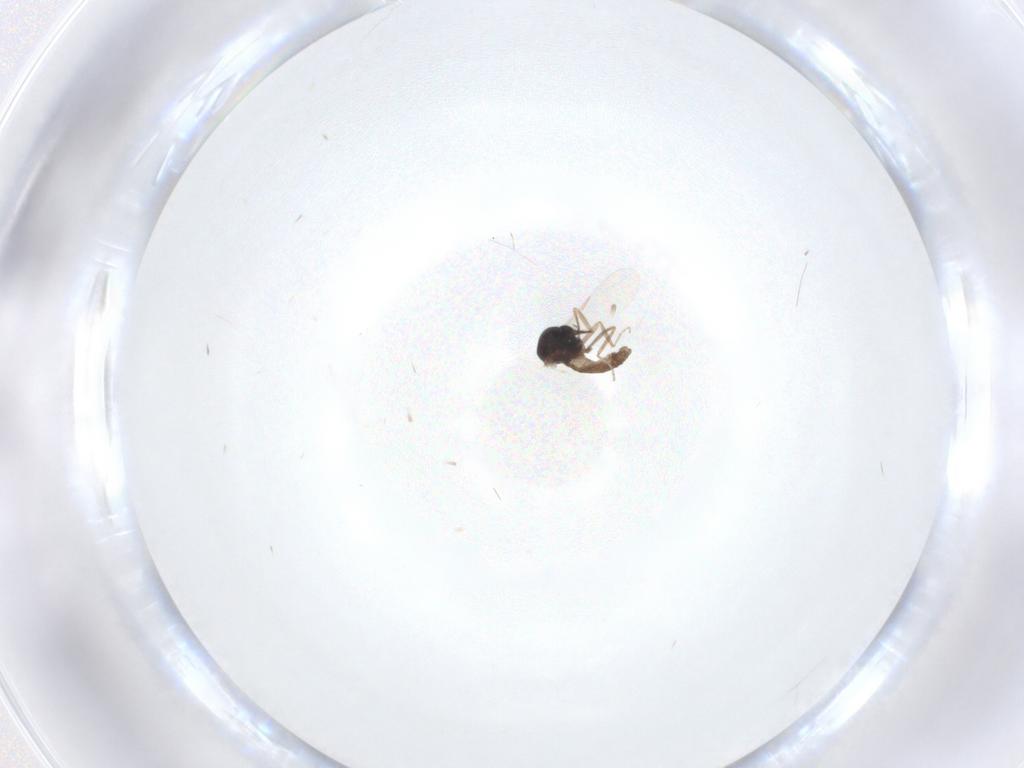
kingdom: Animalia
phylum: Arthropoda
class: Insecta
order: Diptera
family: Ceratopogonidae
